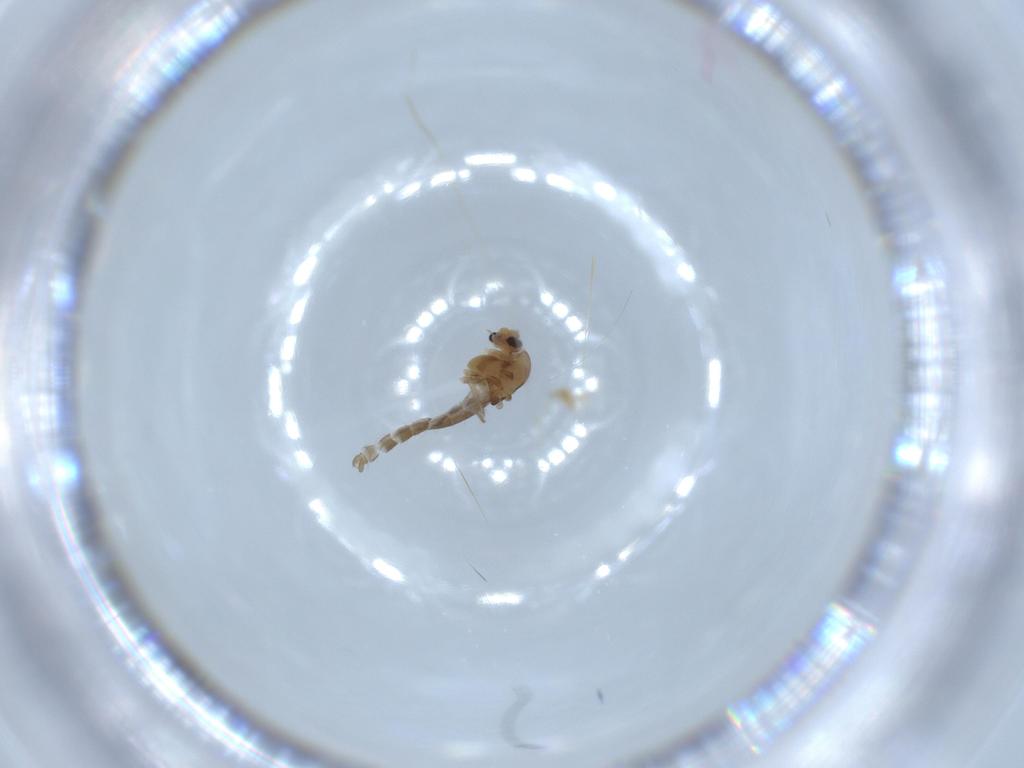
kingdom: Animalia
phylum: Arthropoda
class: Insecta
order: Diptera
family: Chironomidae
